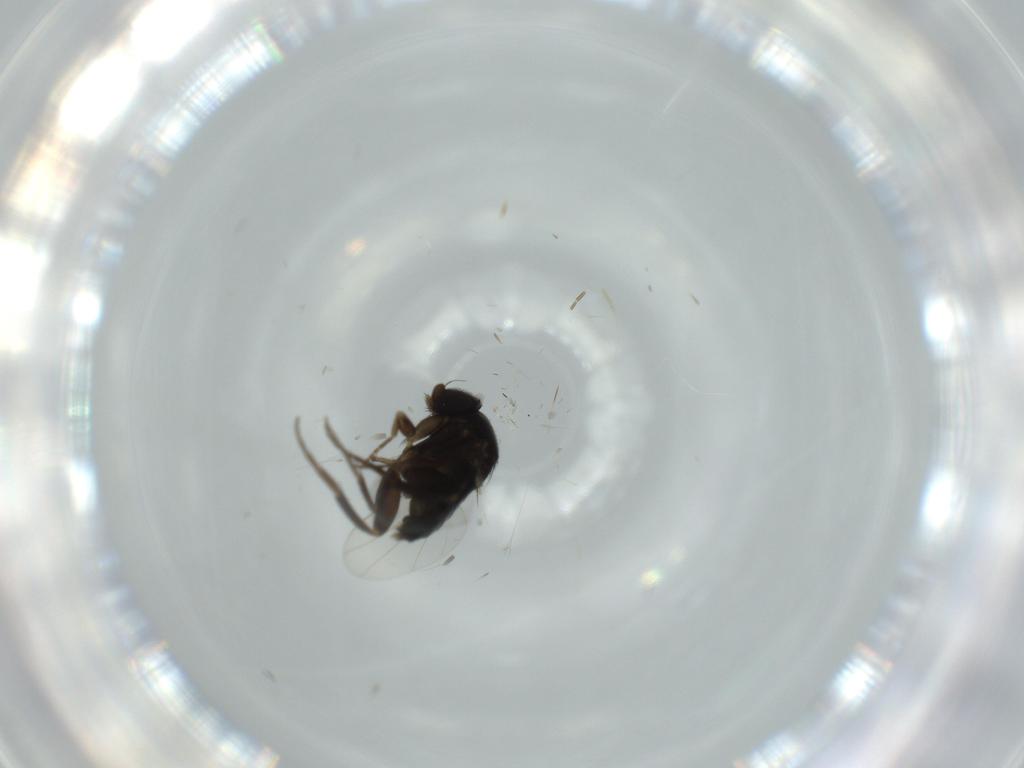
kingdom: Animalia
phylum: Arthropoda
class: Insecta
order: Diptera
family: Phoridae
